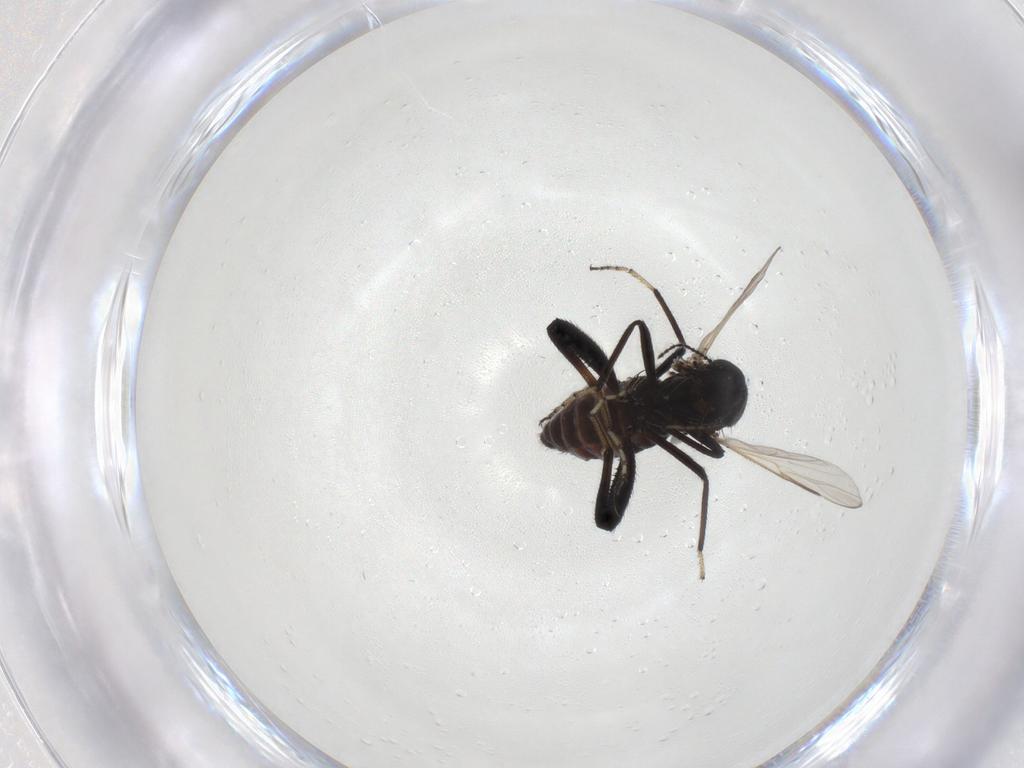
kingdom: Animalia
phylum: Arthropoda
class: Insecta
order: Diptera
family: Ceratopogonidae
